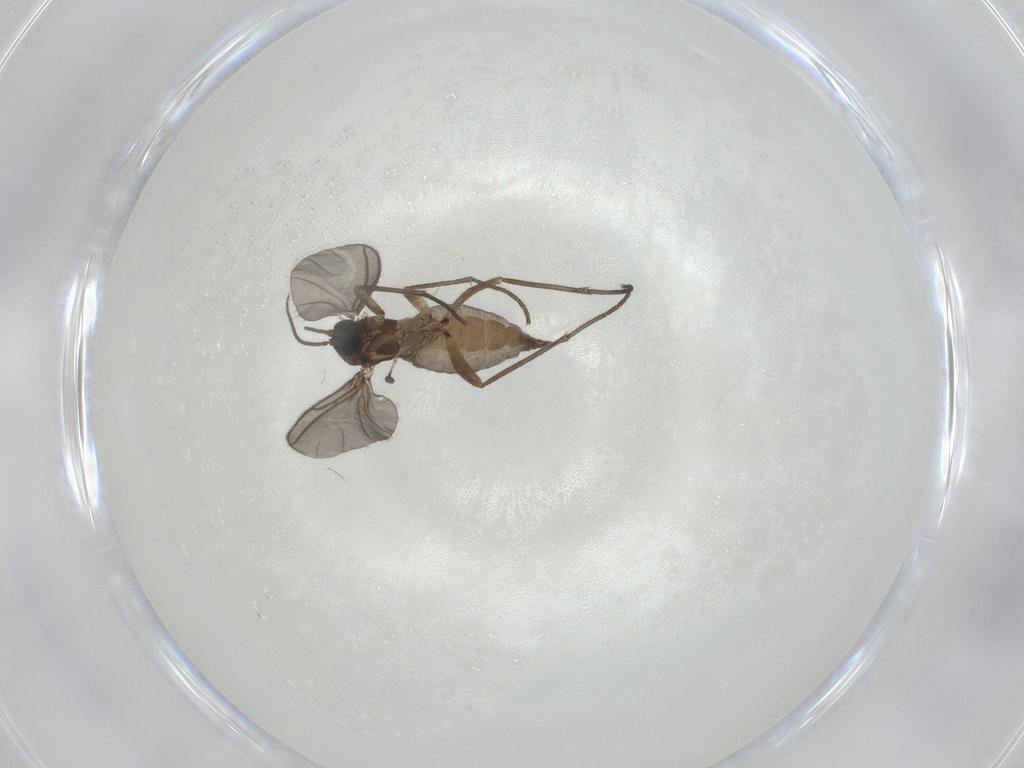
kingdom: Animalia
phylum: Arthropoda
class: Insecta
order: Diptera
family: Sciaridae
